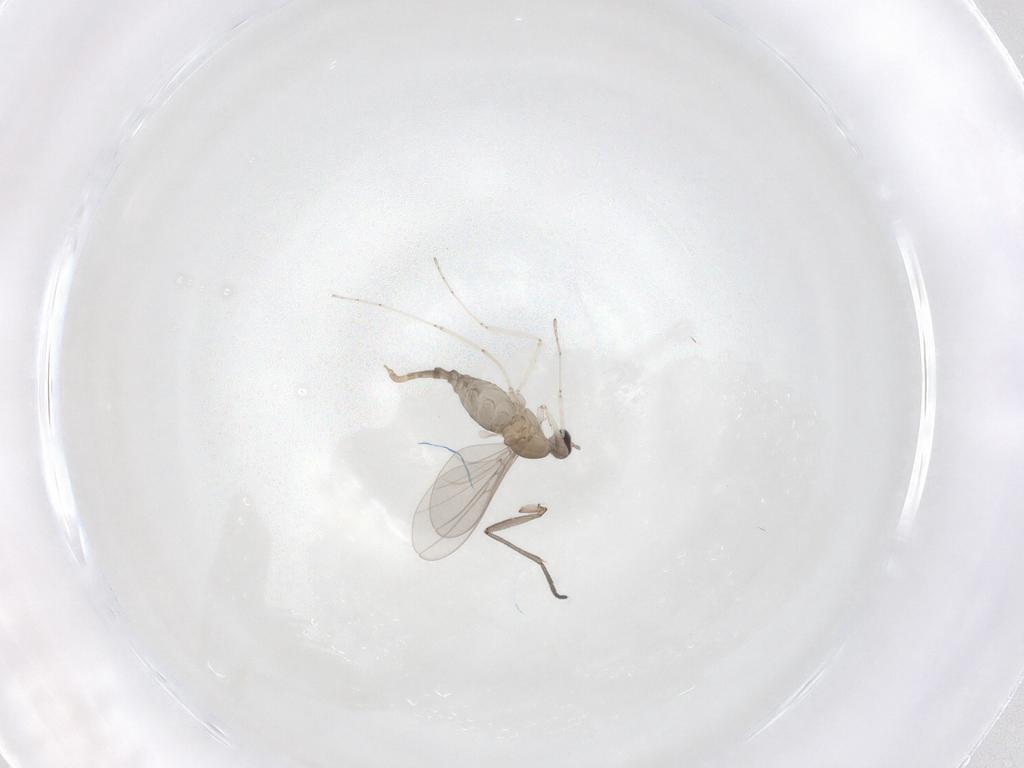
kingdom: Animalia
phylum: Arthropoda
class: Insecta
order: Diptera
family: Cecidomyiidae
